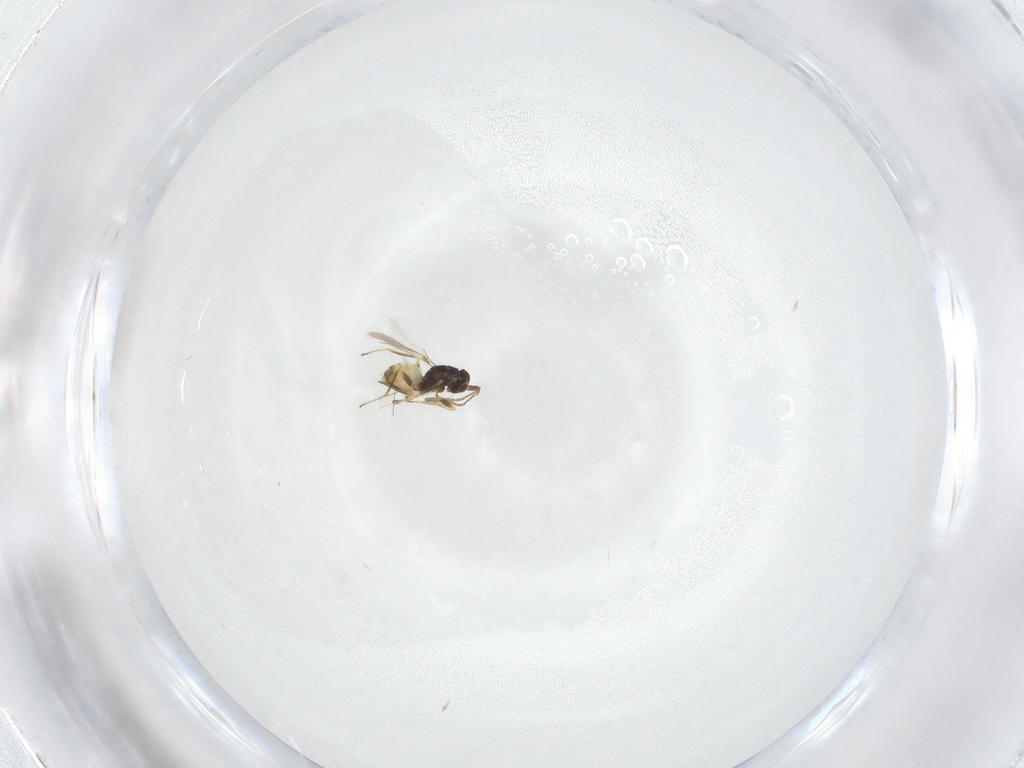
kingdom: Animalia
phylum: Arthropoda
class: Insecta
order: Hymenoptera
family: Mymaridae
